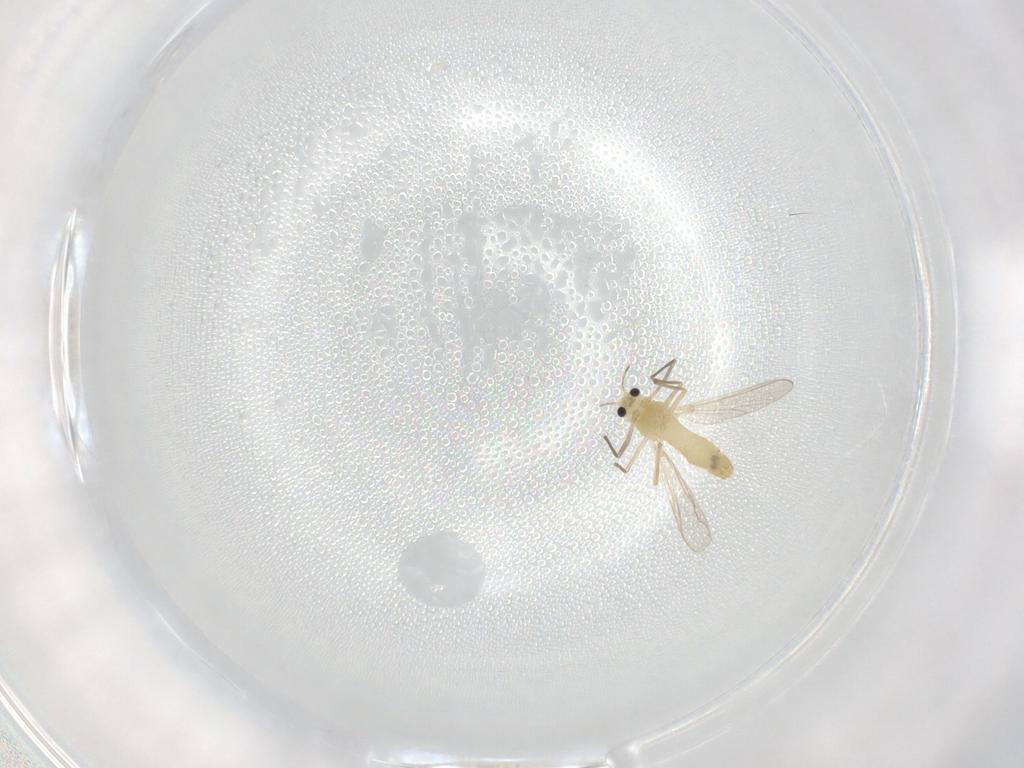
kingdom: Animalia
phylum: Arthropoda
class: Insecta
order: Diptera
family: Chironomidae
